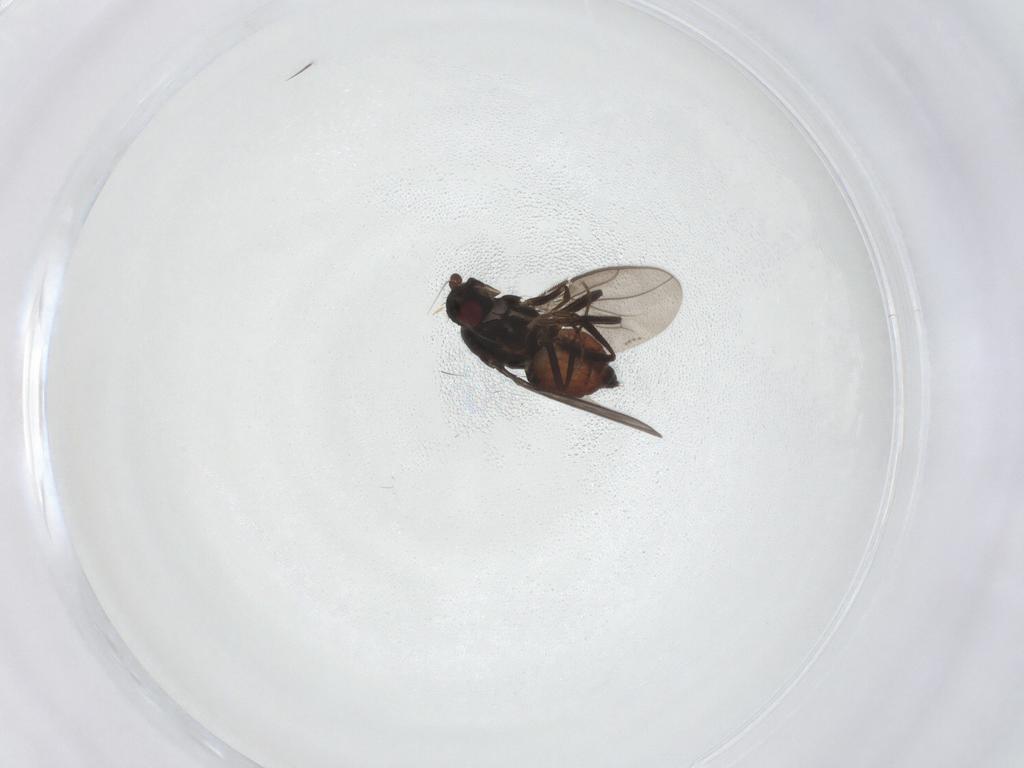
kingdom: Animalia
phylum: Arthropoda
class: Insecta
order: Diptera
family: Sphaeroceridae
